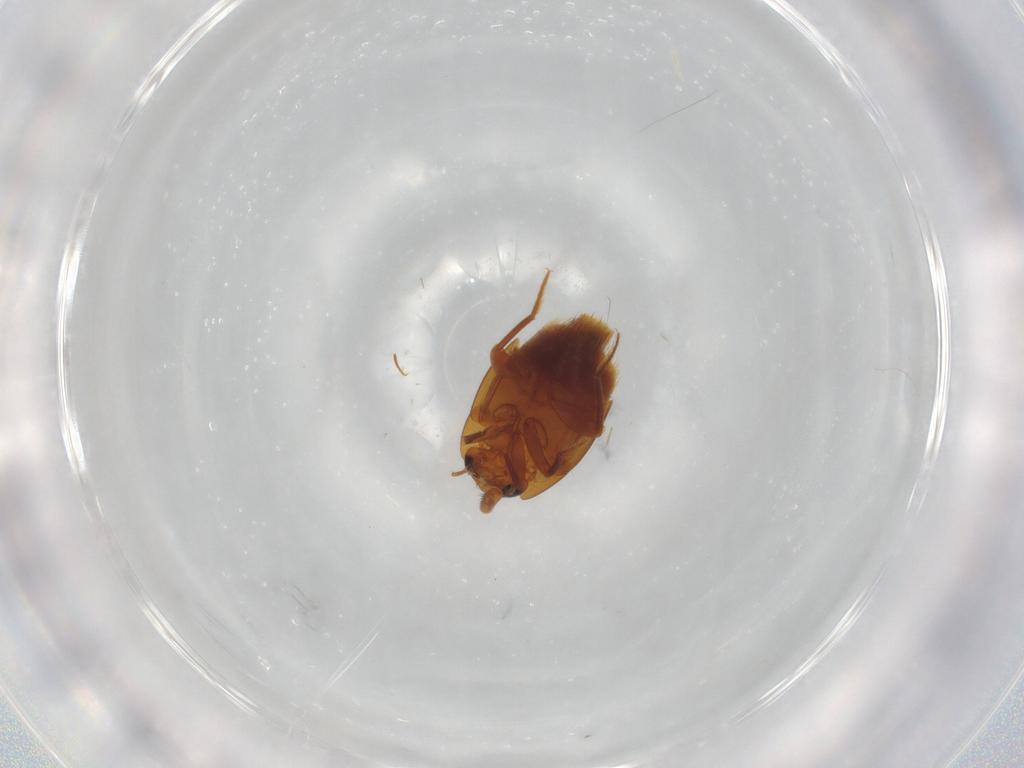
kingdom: Animalia
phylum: Arthropoda
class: Insecta
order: Coleoptera
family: Staphylinidae
